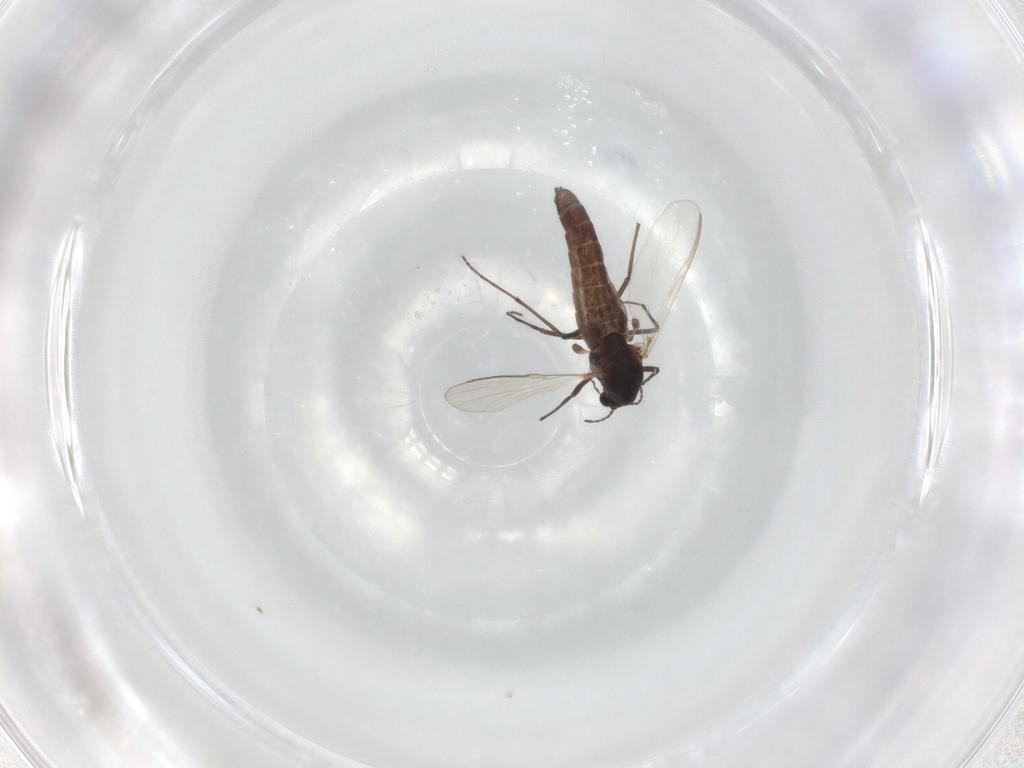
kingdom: Animalia
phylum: Arthropoda
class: Insecta
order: Diptera
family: Chironomidae
